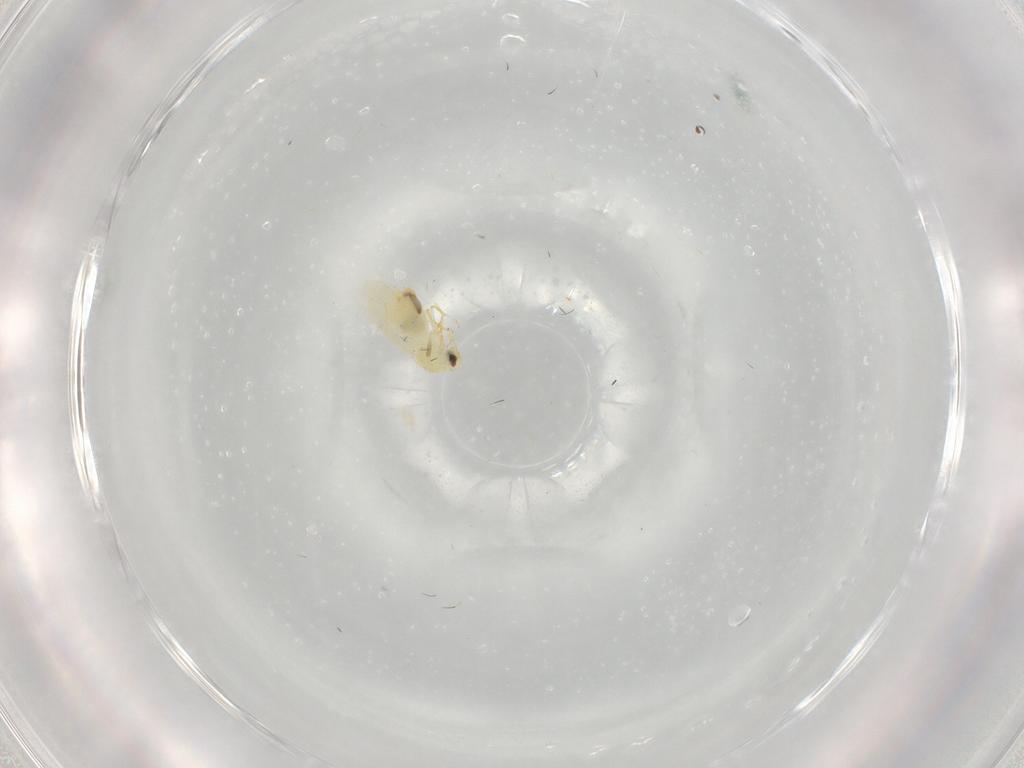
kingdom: Animalia
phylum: Arthropoda
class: Insecta
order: Hemiptera
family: Aleyrodidae
